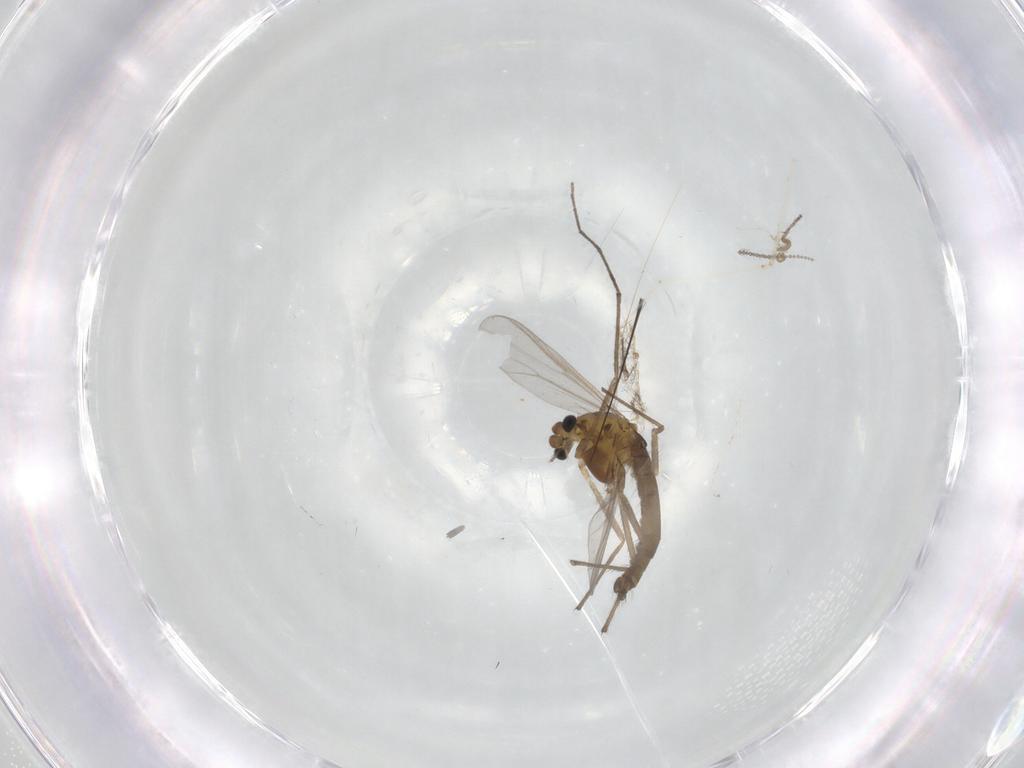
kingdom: Animalia
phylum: Arthropoda
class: Insecta
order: Diptera
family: Chironomidae
